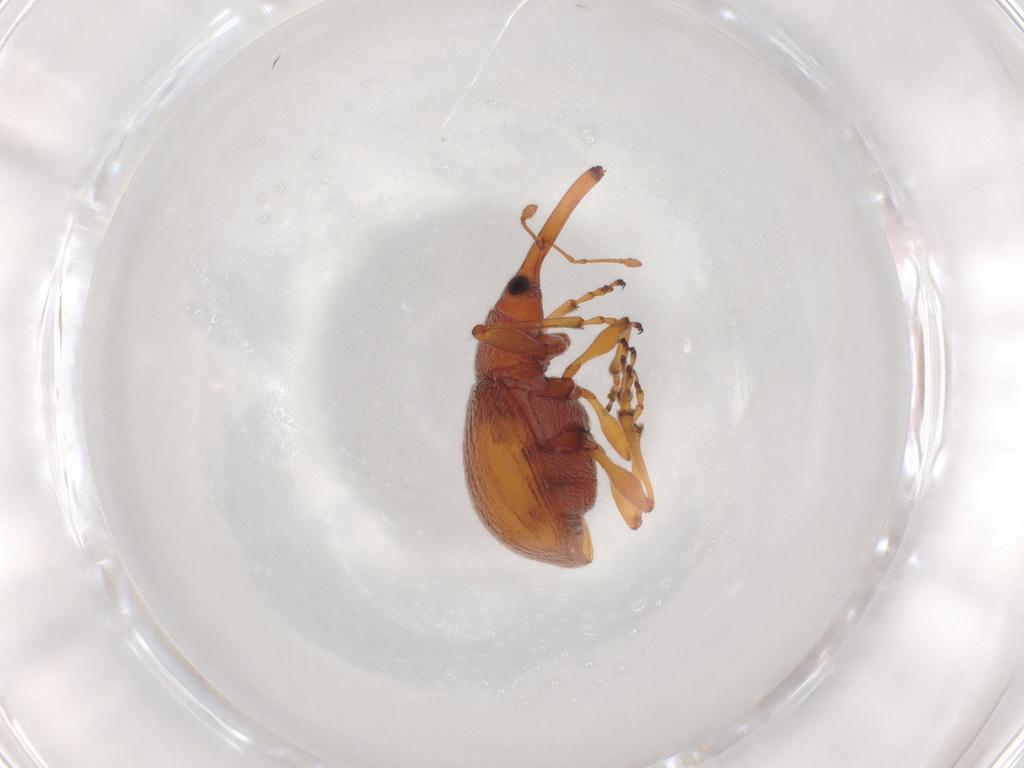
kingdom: Animalia
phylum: Arthropoda
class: Insecta
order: Coleoptera
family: Brentidae
